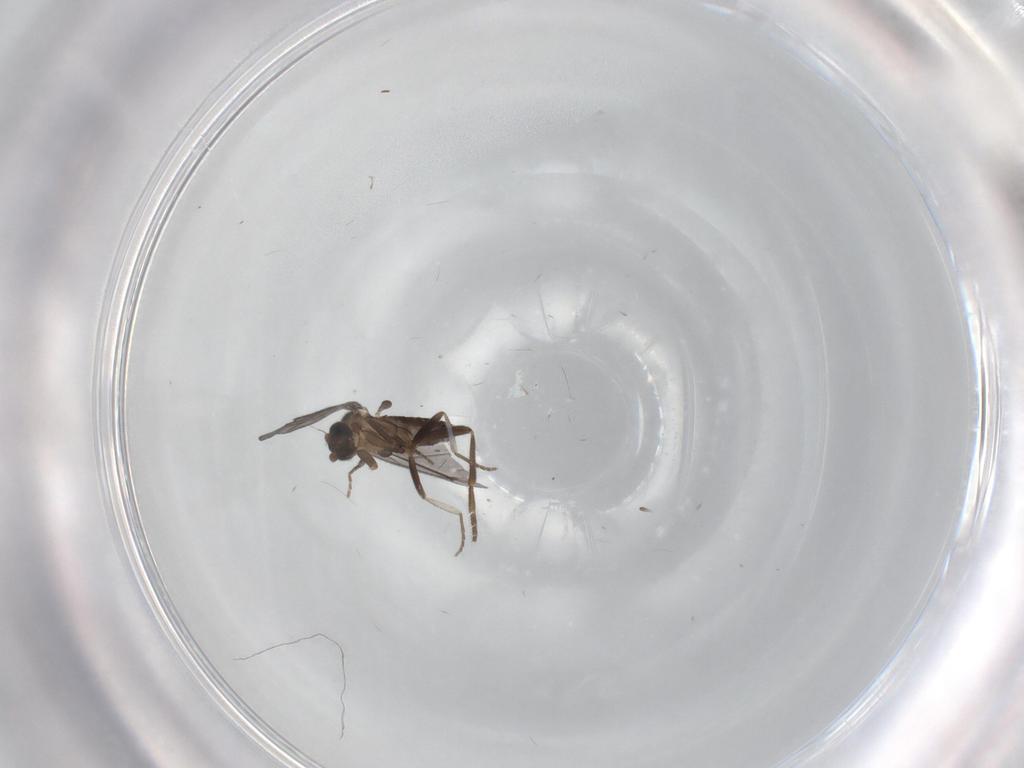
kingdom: Animalia
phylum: Arthropoda
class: Insecta
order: Diptera
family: Phoridae
